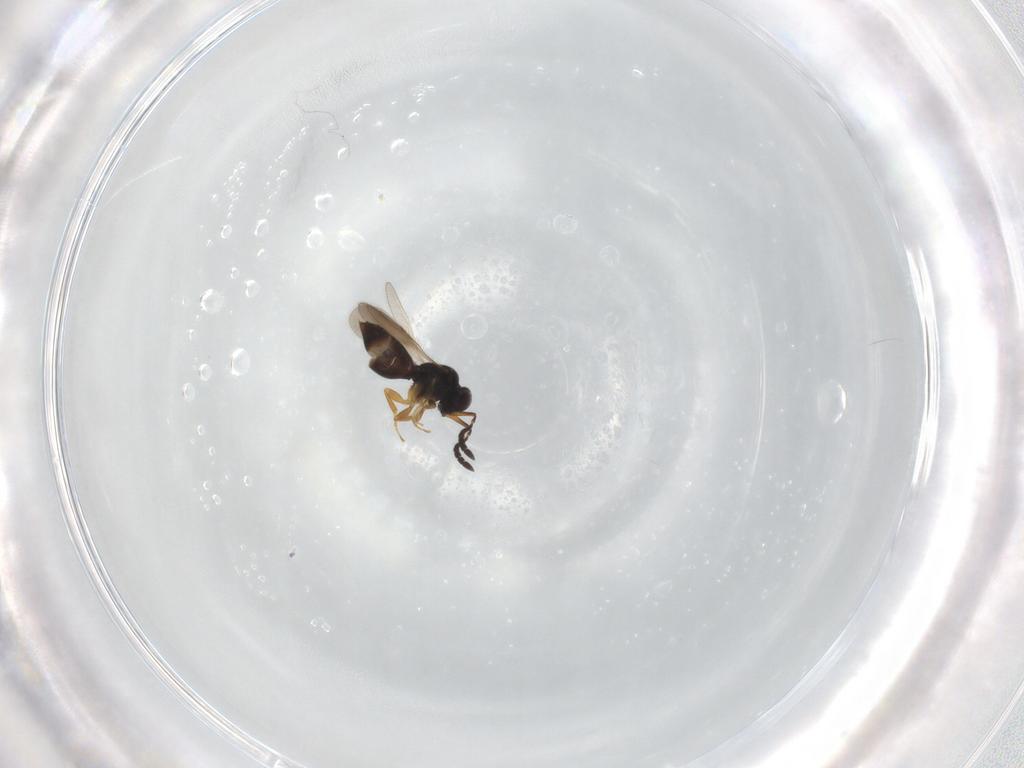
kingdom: Animalia
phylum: Arthropoda
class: Insecta
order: Hymenoptera
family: Ceraphronidae
